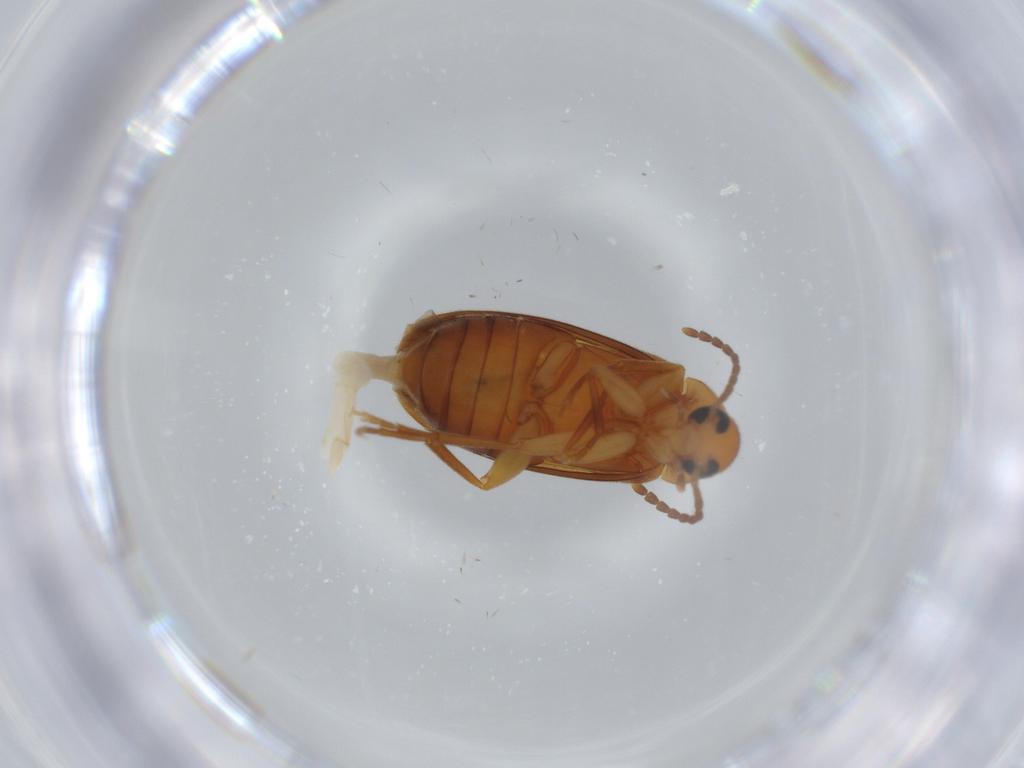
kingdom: Animalia
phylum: Arthropoda
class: Insecta
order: Coleoptera
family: Scraptiidae
